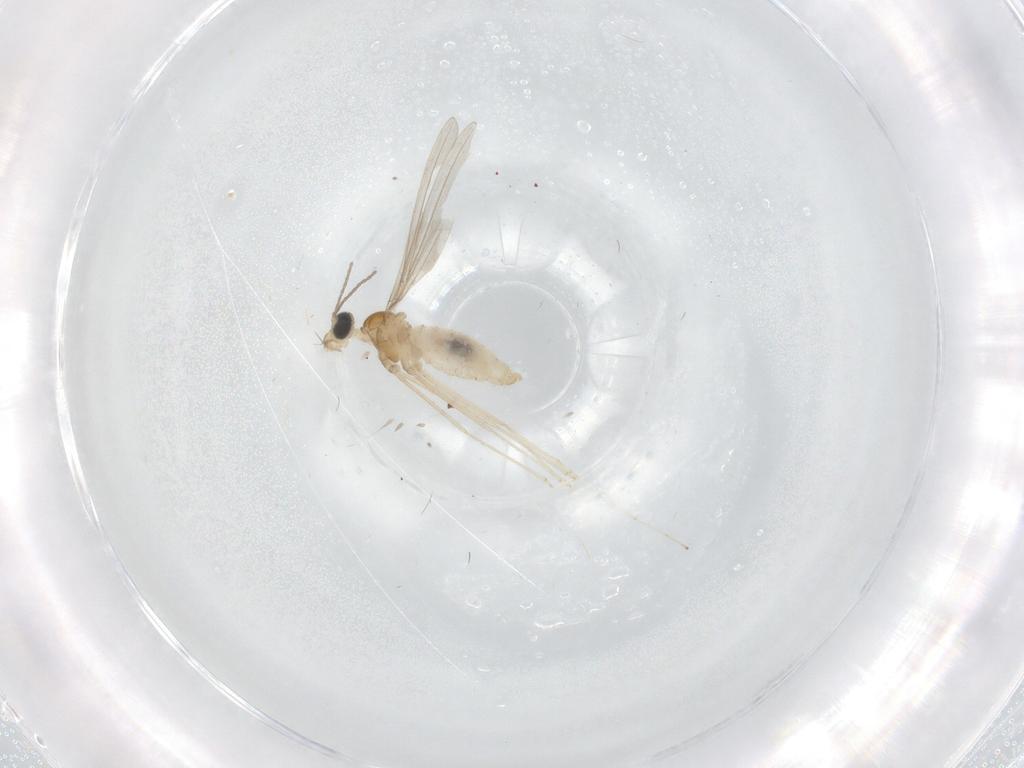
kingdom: Animalia
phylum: Arthropoda
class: Insecta
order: Diptera
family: Cecidomyiidae
